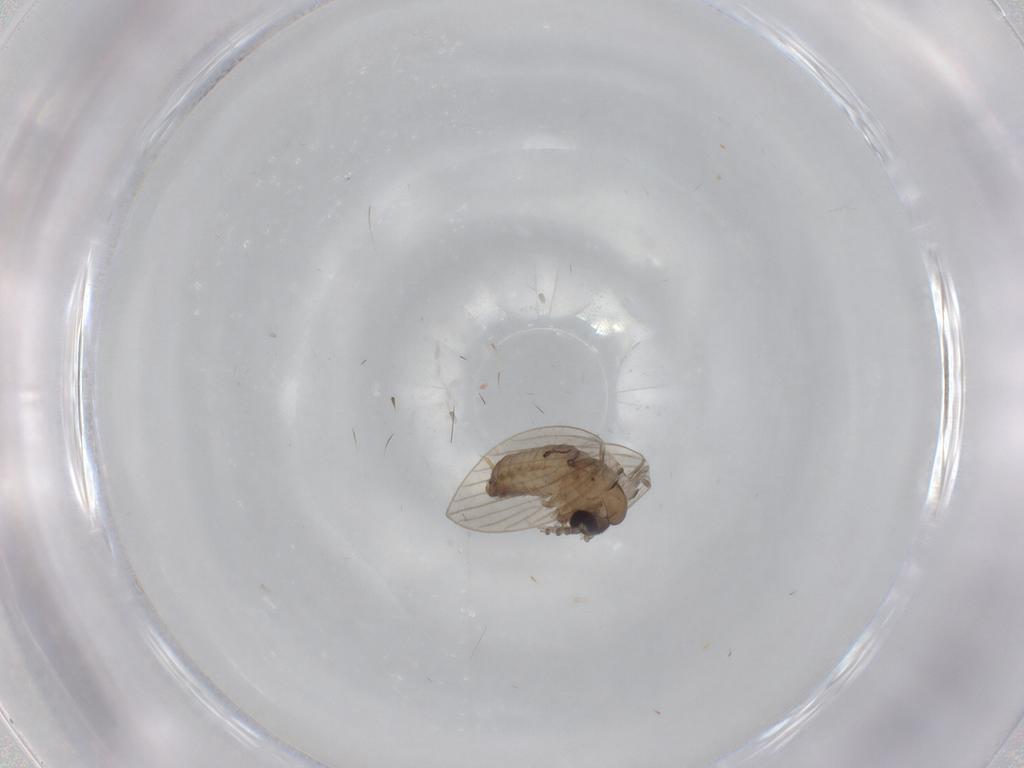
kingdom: Animalia
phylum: Arthropoda
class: Insecta
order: Diptera
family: Psychodidae
